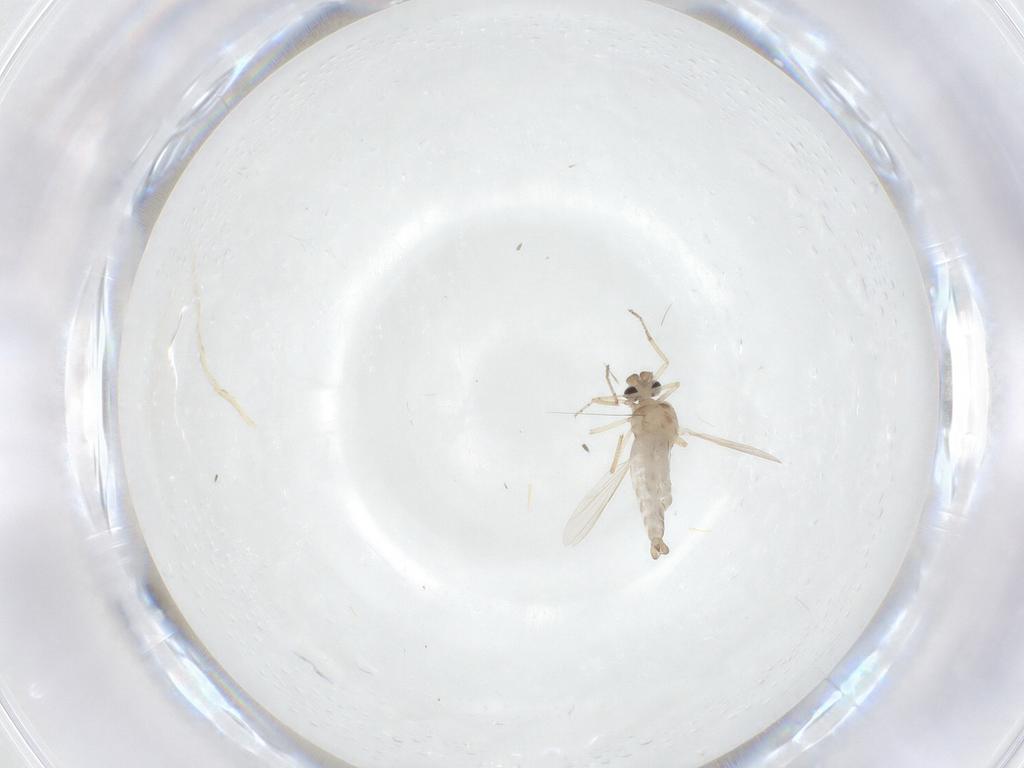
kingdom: Animalia
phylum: Arthropoda
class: Insecta
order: Diptera
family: Ceratopogonidae
